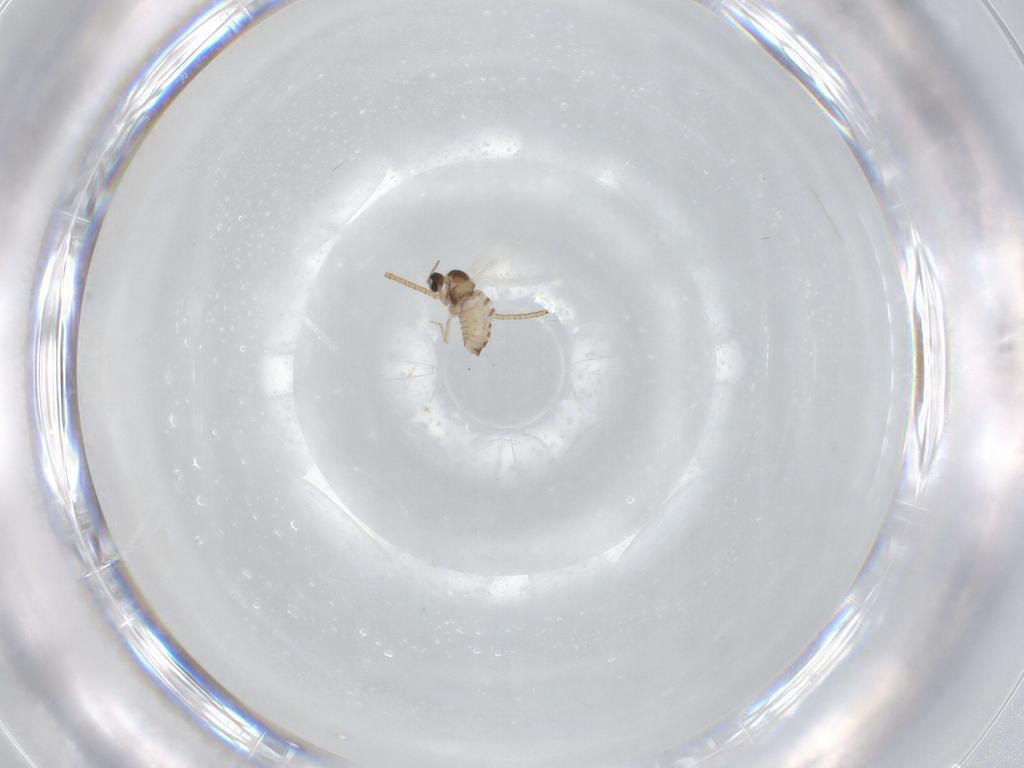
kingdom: Animalia
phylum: Arthropoda
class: Insecta
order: Diptera
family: Cecidomyiidae
